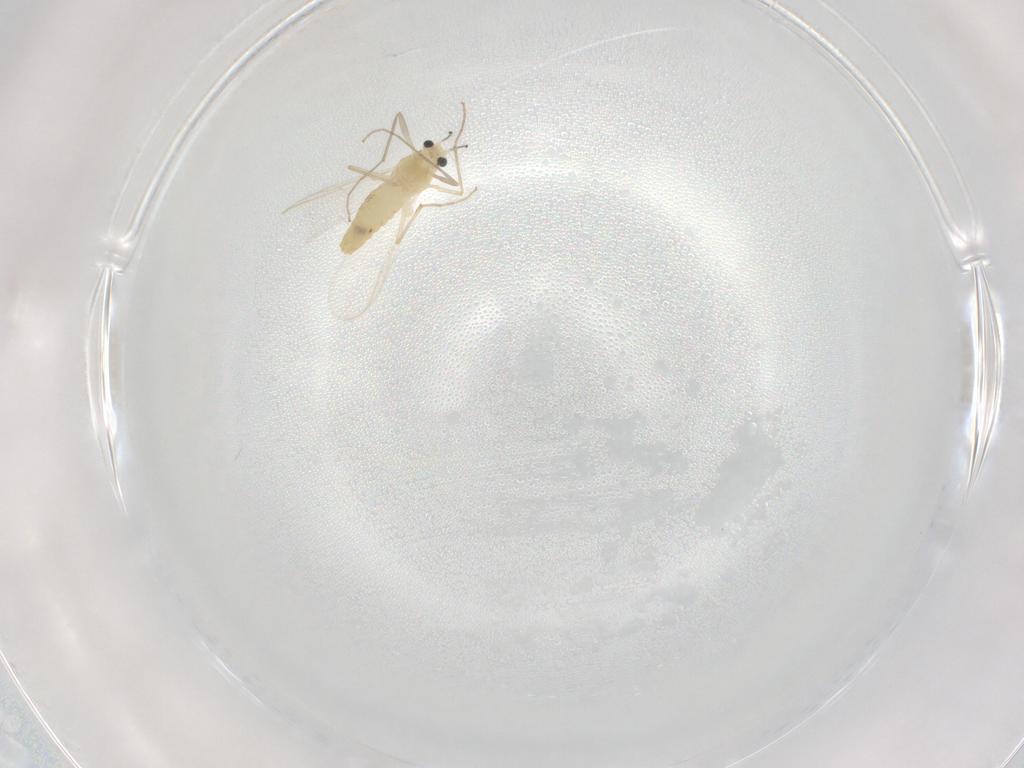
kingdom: Animalia
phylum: Arthropoda
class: Insecta
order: Diptera
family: Chironomidae
